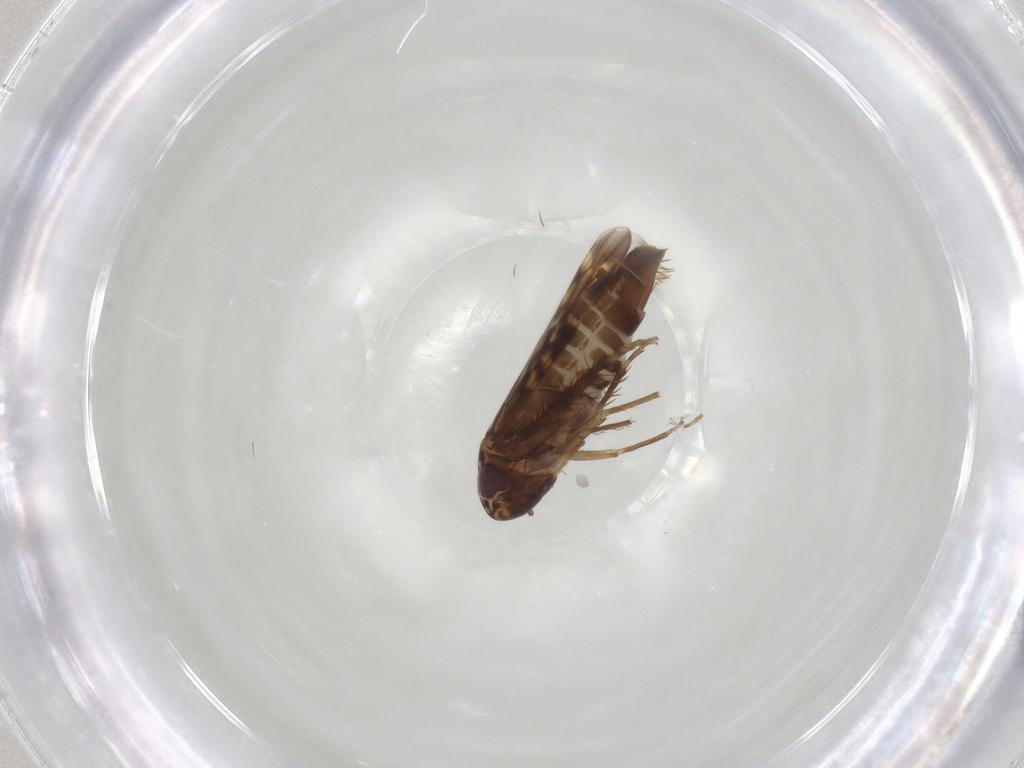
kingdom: Animalia
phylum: Arthropoda
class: Insecta
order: Hemiptera
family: Cicadellidae
